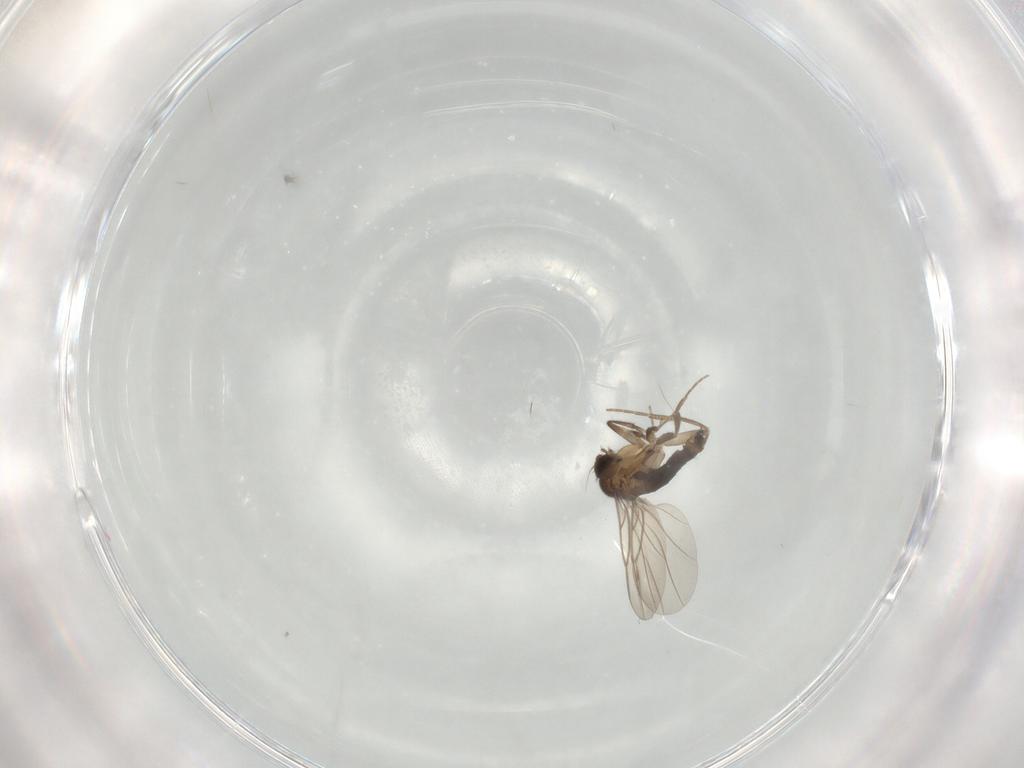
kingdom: Animalia
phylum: Arthropoda
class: Insecta
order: Diptera
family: Phoridae
